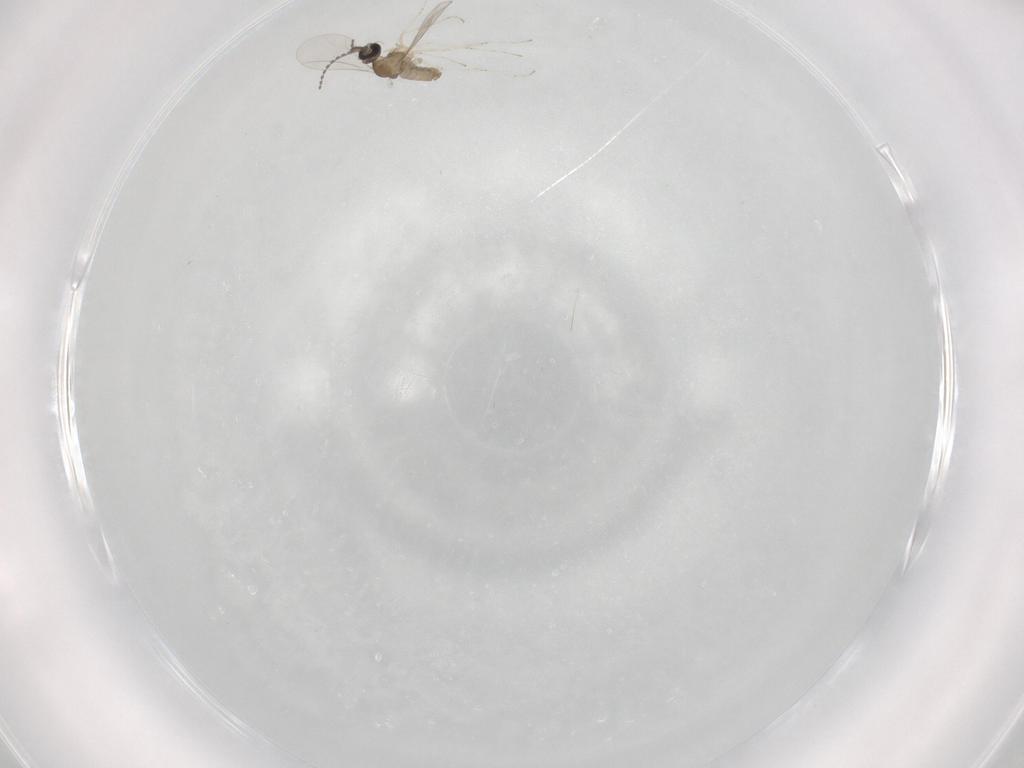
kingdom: Animalia
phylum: Arthropoda
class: Insecta
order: Diptera
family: Cecidomyiidae
